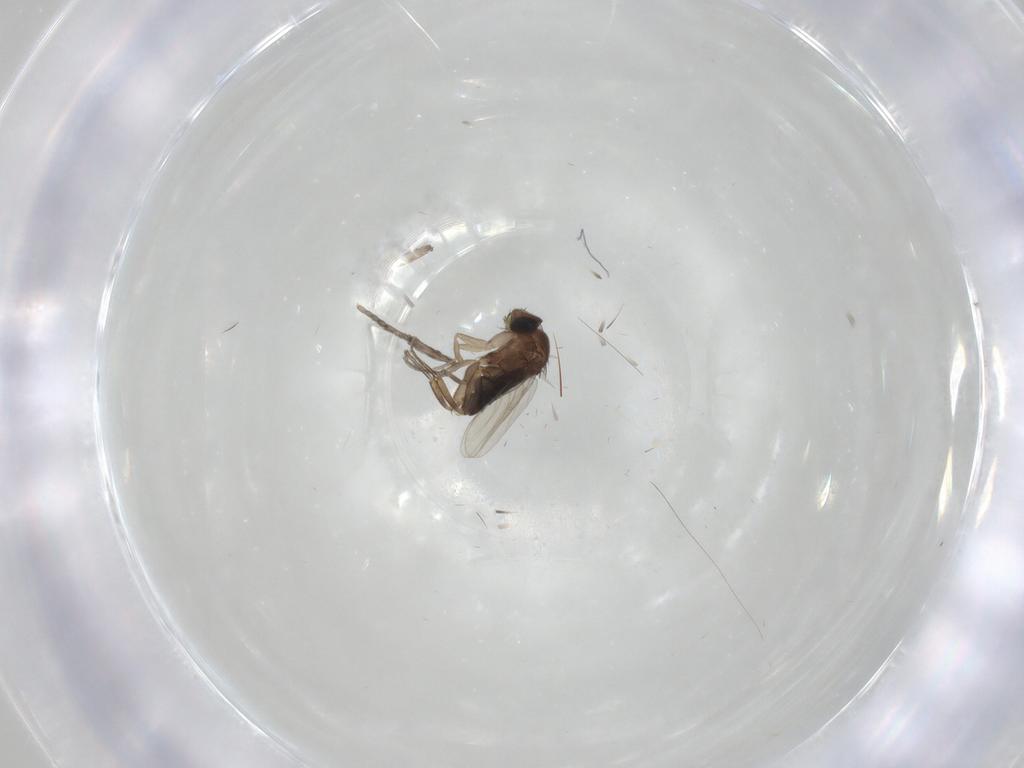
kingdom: Animalia
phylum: Arthropoda
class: Insecta
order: Diptera
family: Psychodidae
